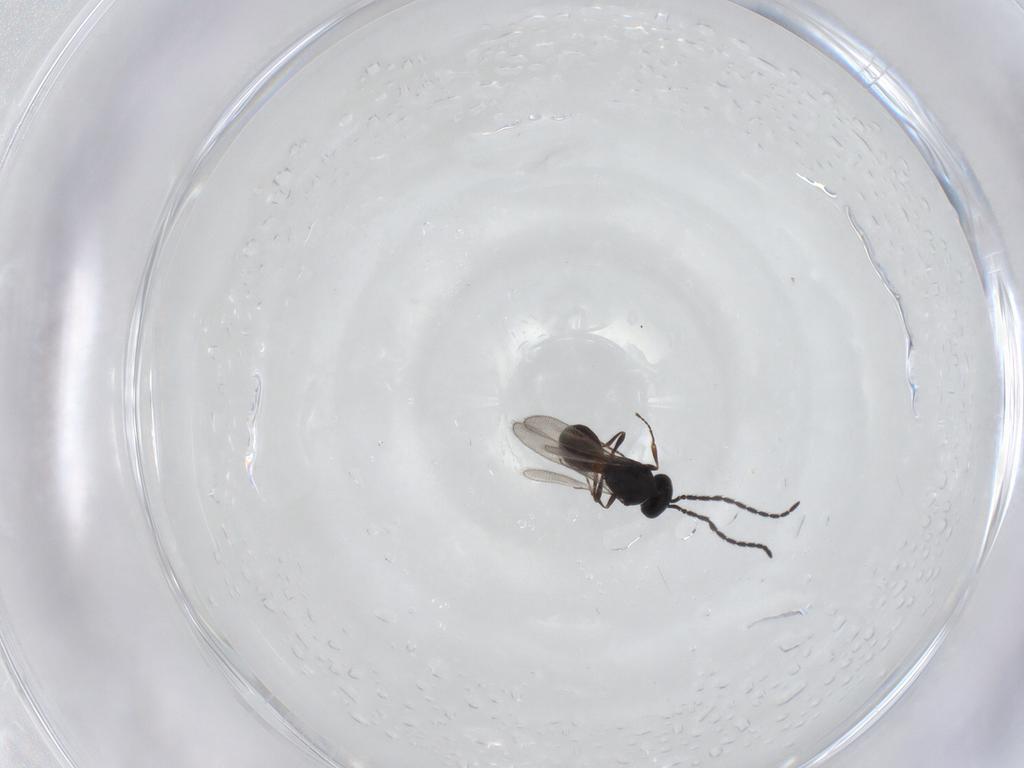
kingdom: Animalia
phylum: Arthropoda
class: Insecta
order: Hymenoptera
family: Scelionidae
